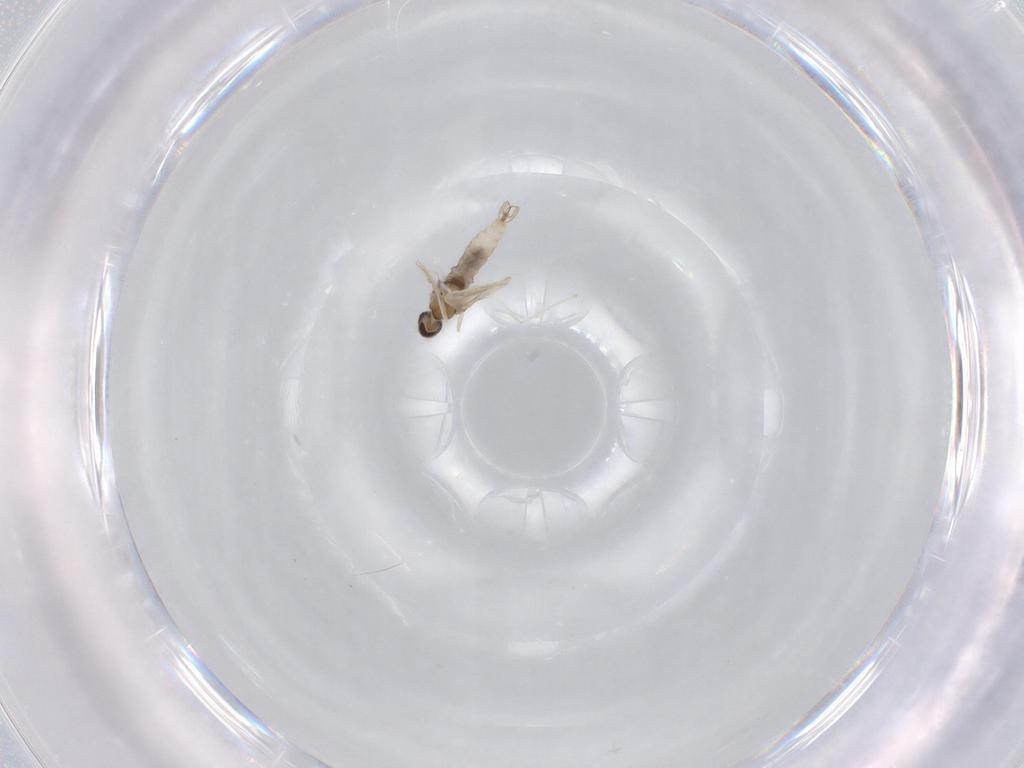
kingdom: Animalia
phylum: Arthropoda
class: Insecta
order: Diptera
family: Cecidomyiidae
